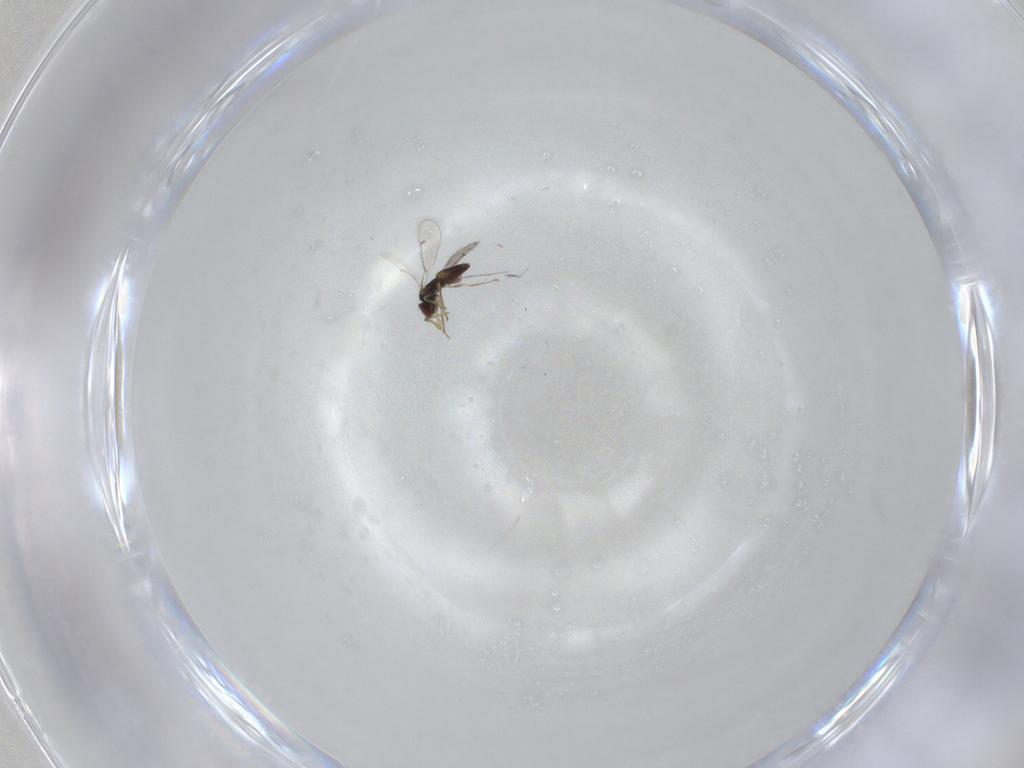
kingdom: Animalia
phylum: Arthropoda
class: Insecta
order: Hymenoptera
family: Eulophidae
